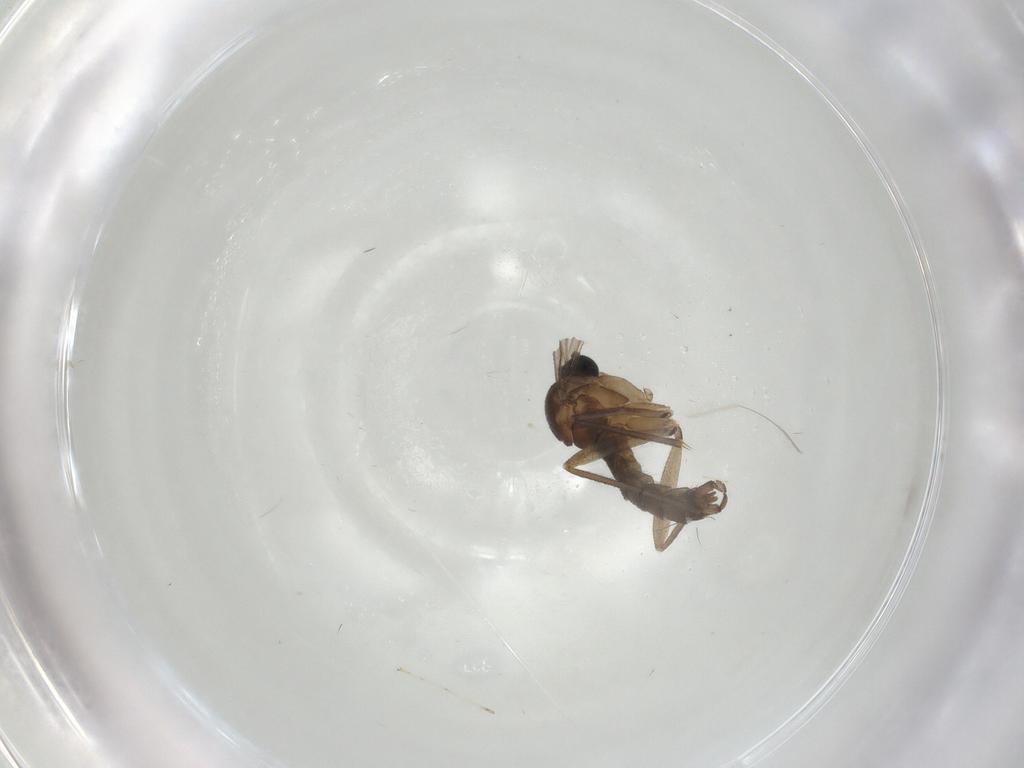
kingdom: Animalia
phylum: Arthropoda
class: Insecta
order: Diptera
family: Sciaridae
